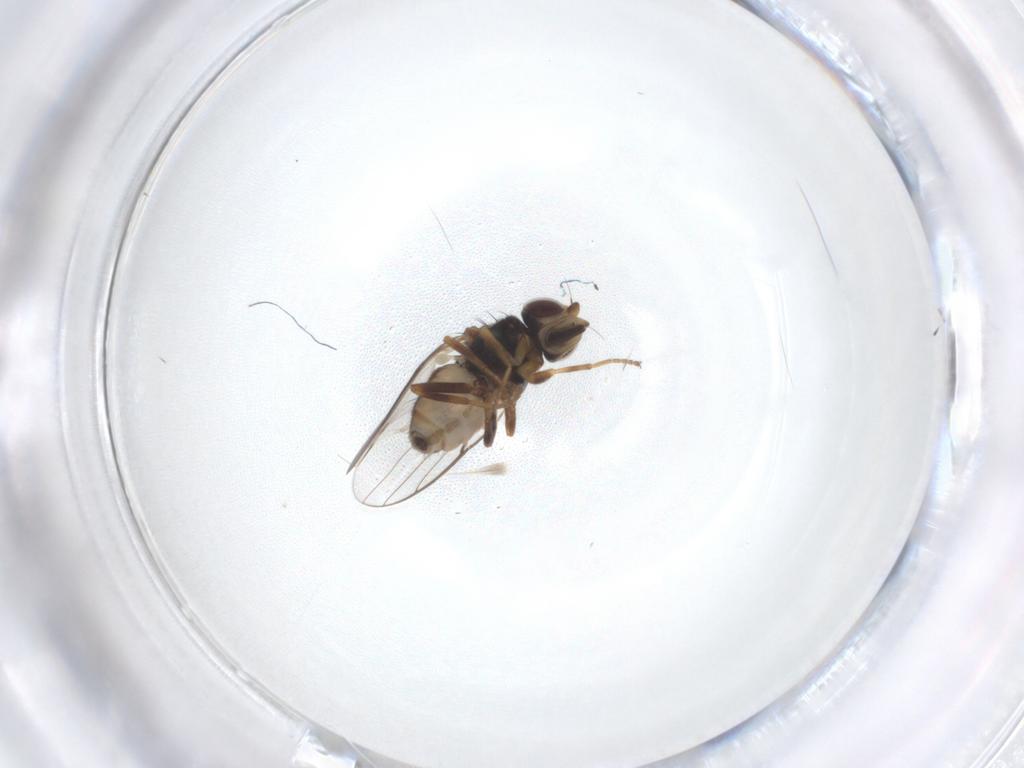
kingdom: Animalia
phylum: Arthropoda
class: Insecta
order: Diptera
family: Chloropidae
